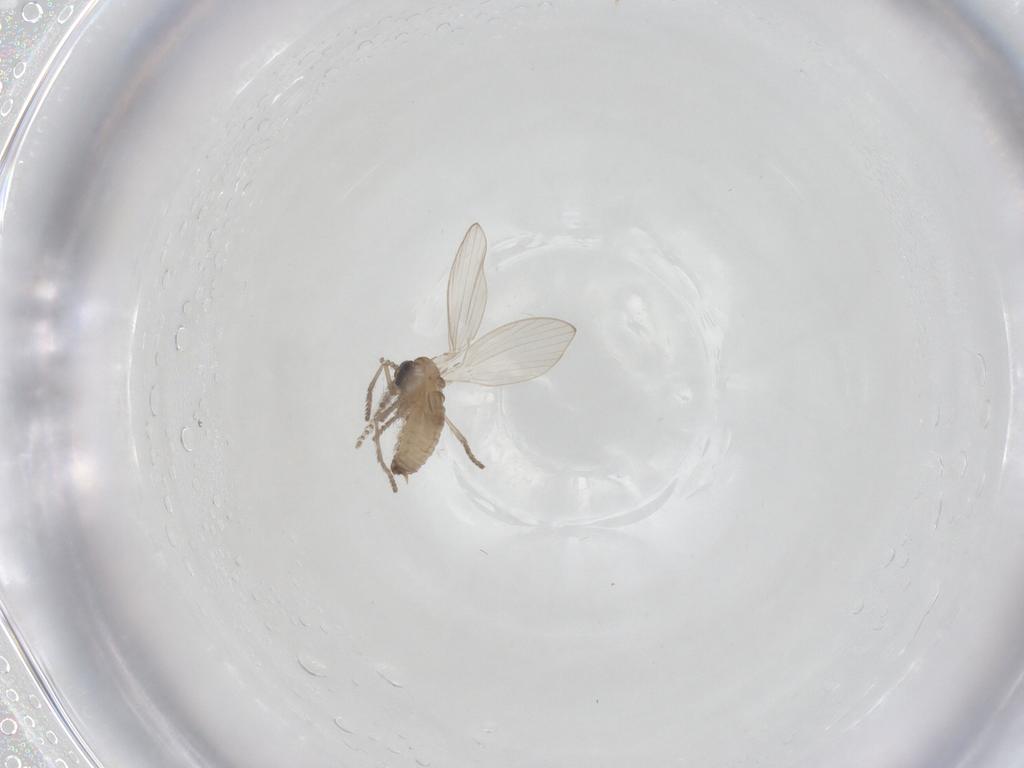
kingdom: Animalia
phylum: Arthropoda
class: Insecta
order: Diptera
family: Psychodidae
